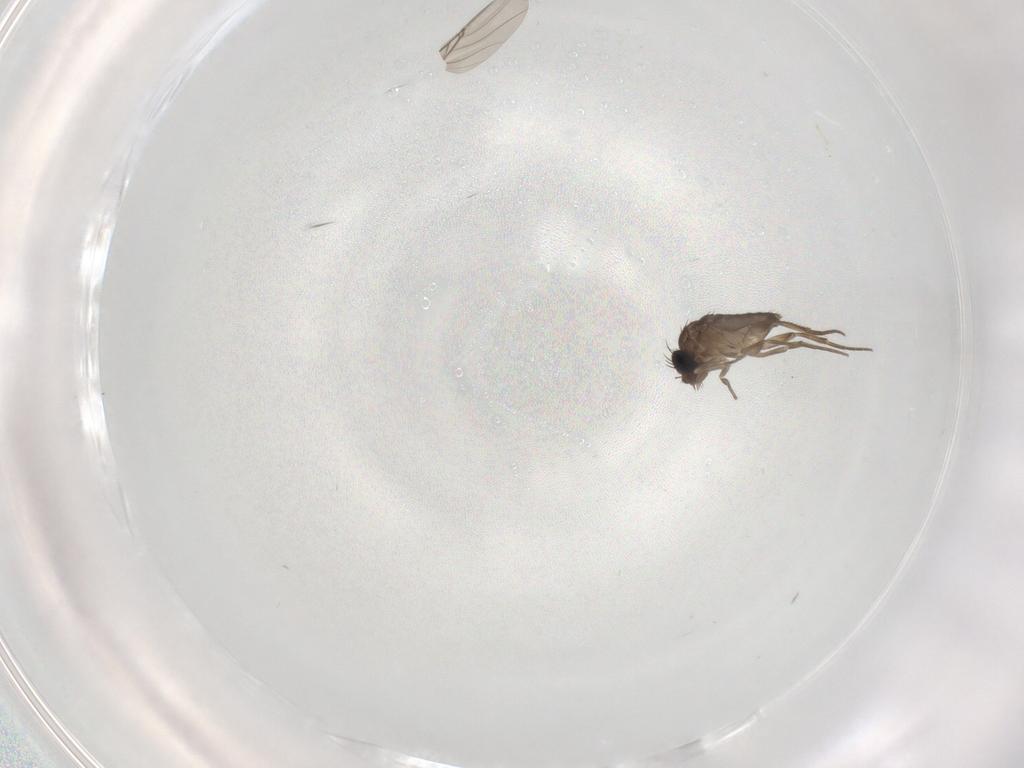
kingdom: Animalia
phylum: Arthropoda
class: Insecta
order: Diptera
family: Phoridae
